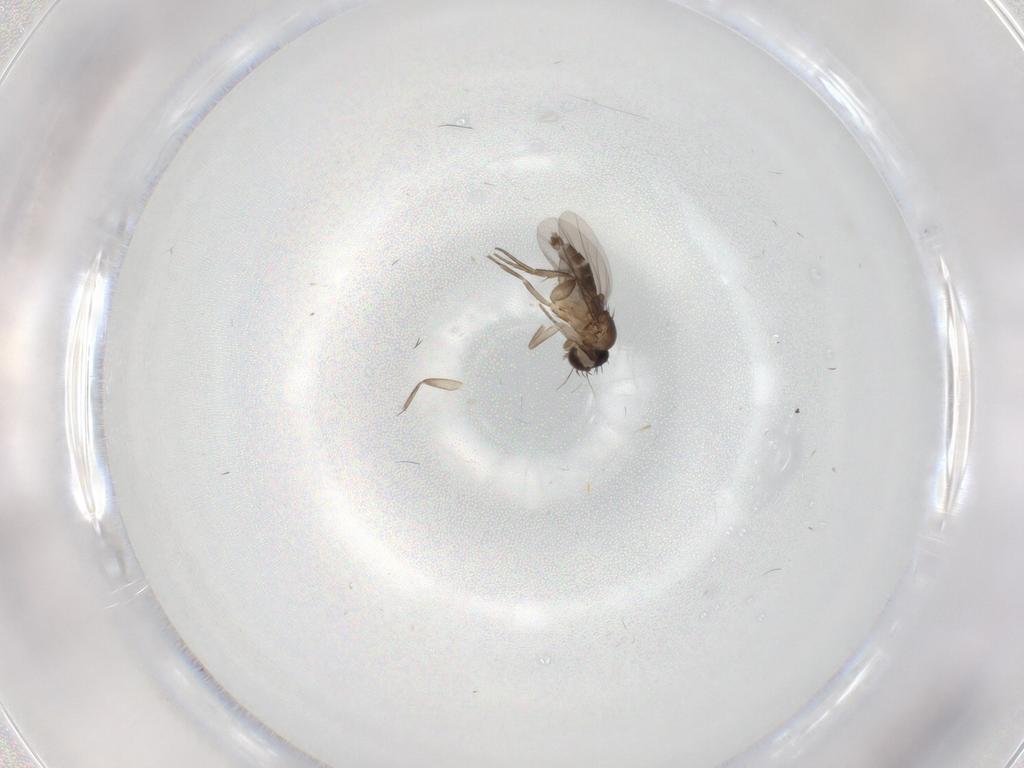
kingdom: Animalia
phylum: Arthropoda
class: Insecta
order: Diptera
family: Phoridae
